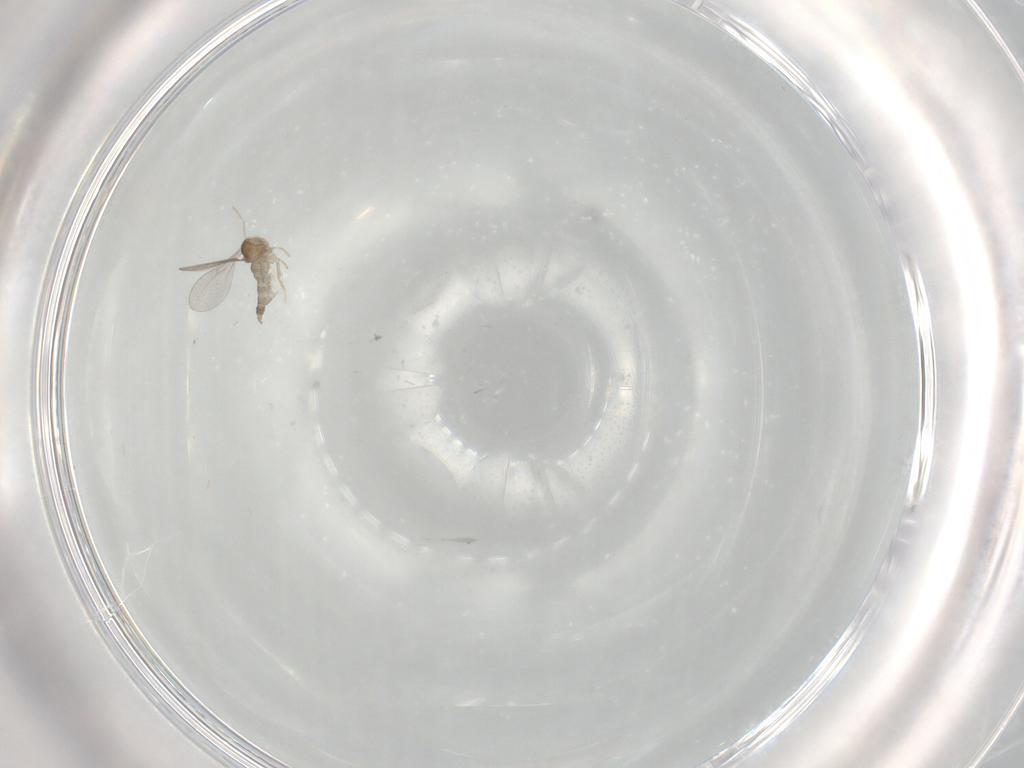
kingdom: Animalia
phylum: Arthropoda
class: Insecta
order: Diptera
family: Cecidomyiidae
